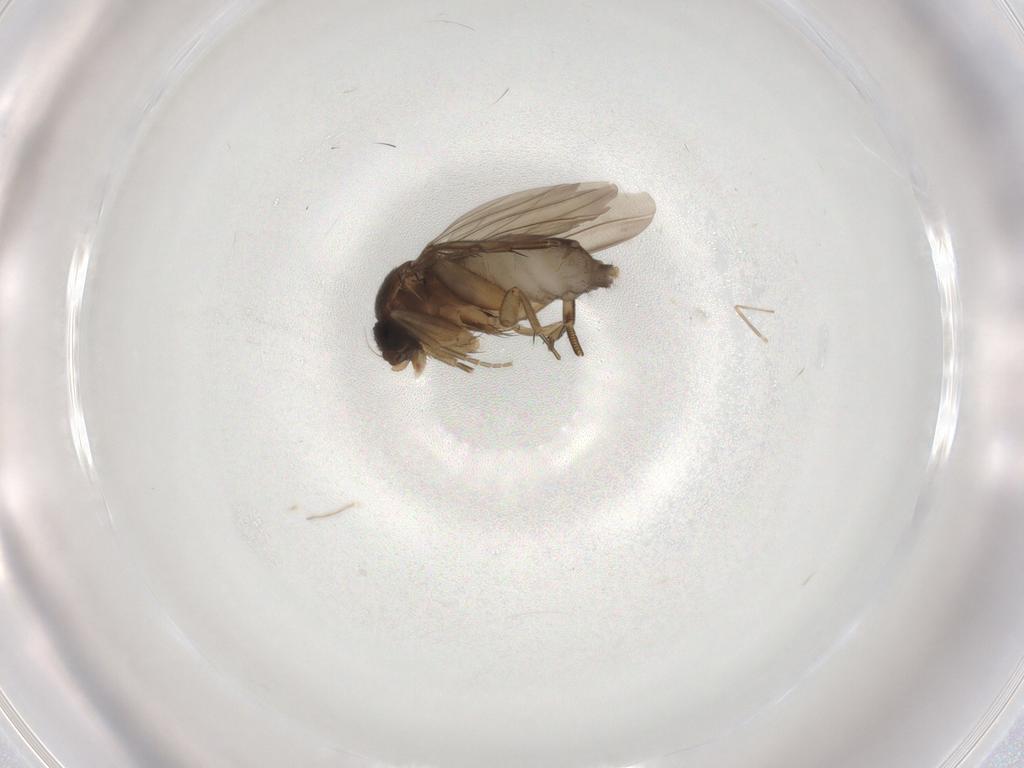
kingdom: Animalia
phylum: Arthropoda
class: Insecta
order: Diptera
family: Phoridae
